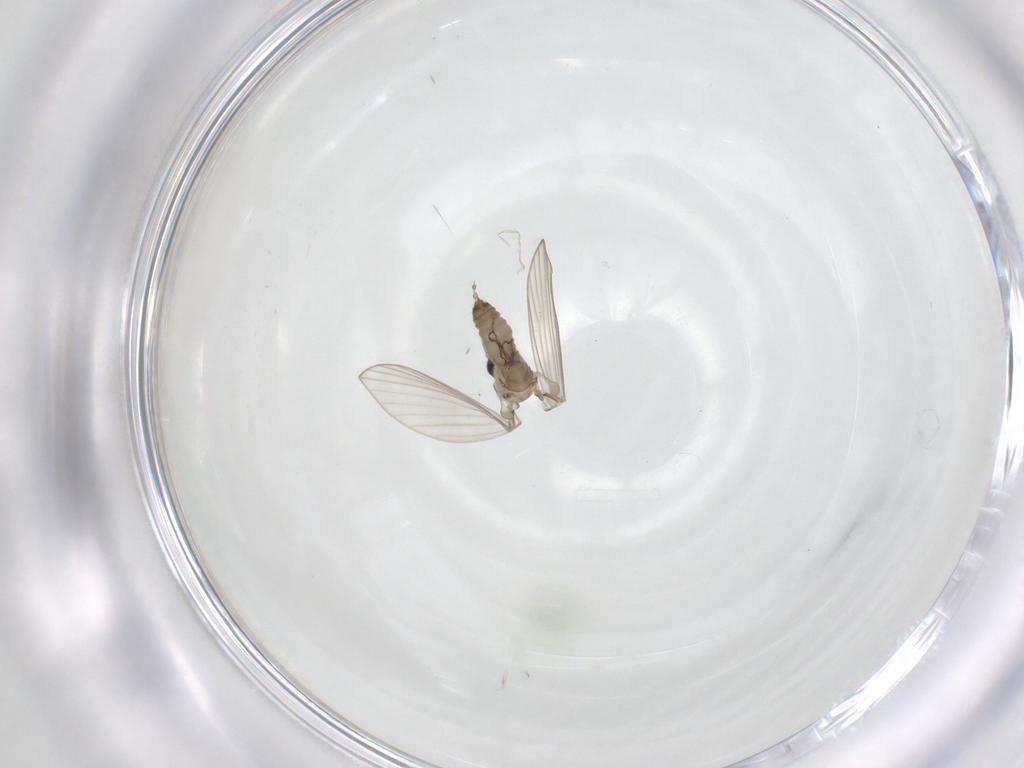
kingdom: Animalia
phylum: Arthropoda
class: Insecta
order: Diptera
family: Psychodidae
